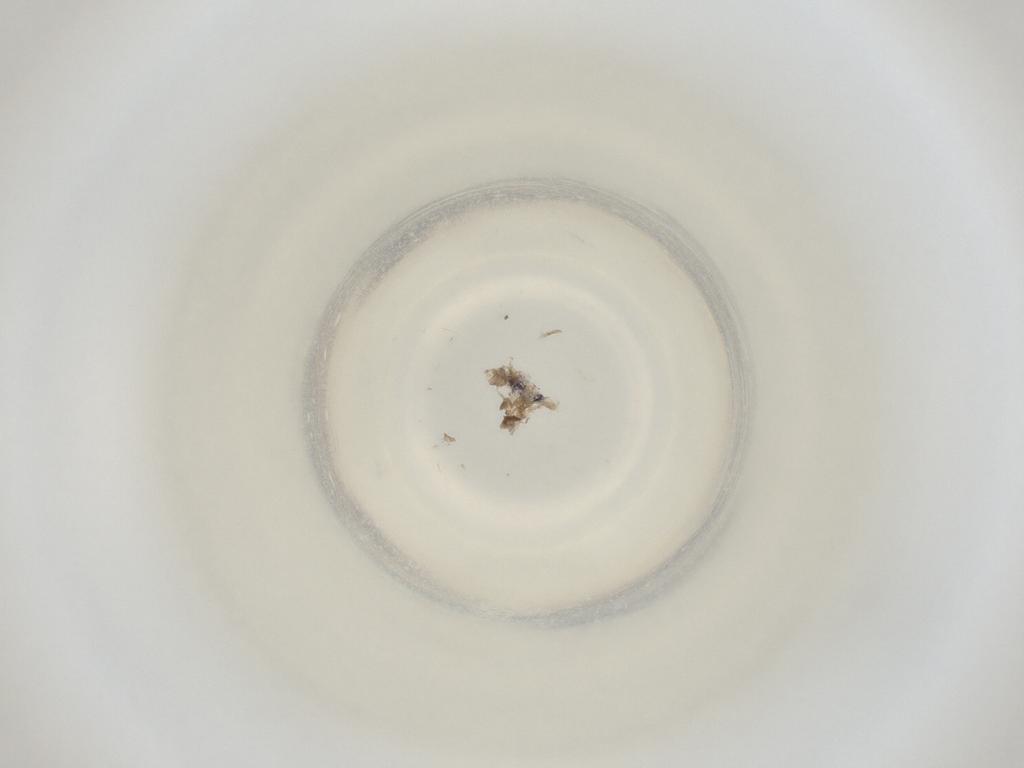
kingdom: Animalia
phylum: Arthropoda
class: Insecta
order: Diptera
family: Cecidomyiidae
